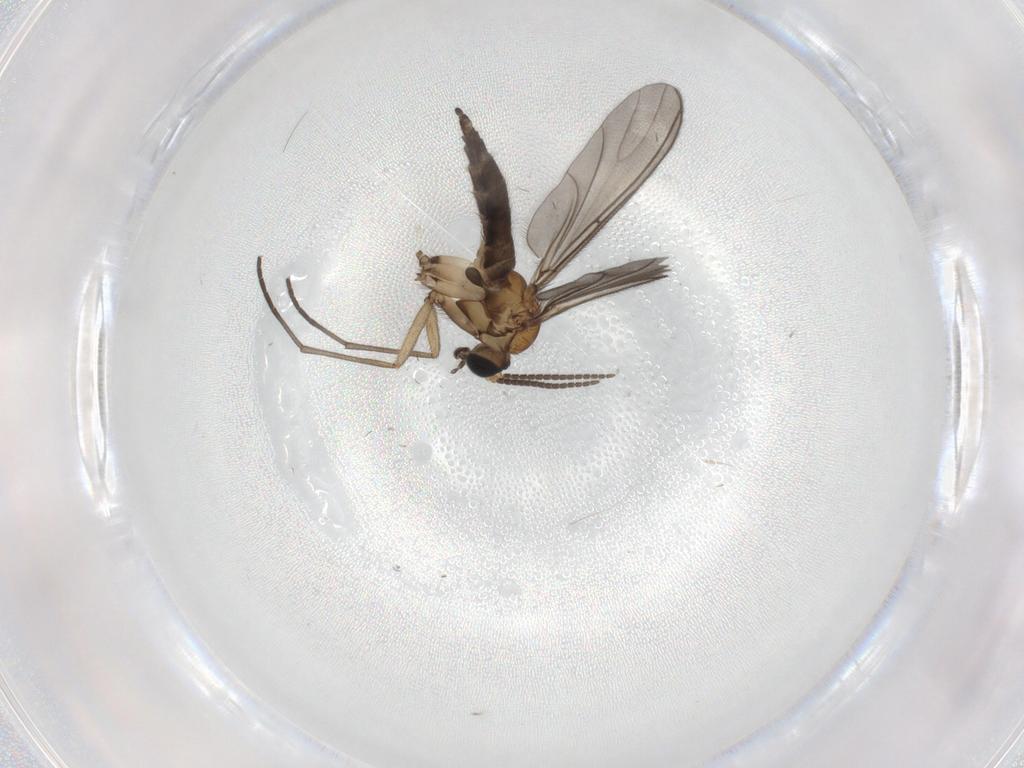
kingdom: Animalia
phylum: Arthropoda
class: Insecta
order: Diptera
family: Sciaridae
